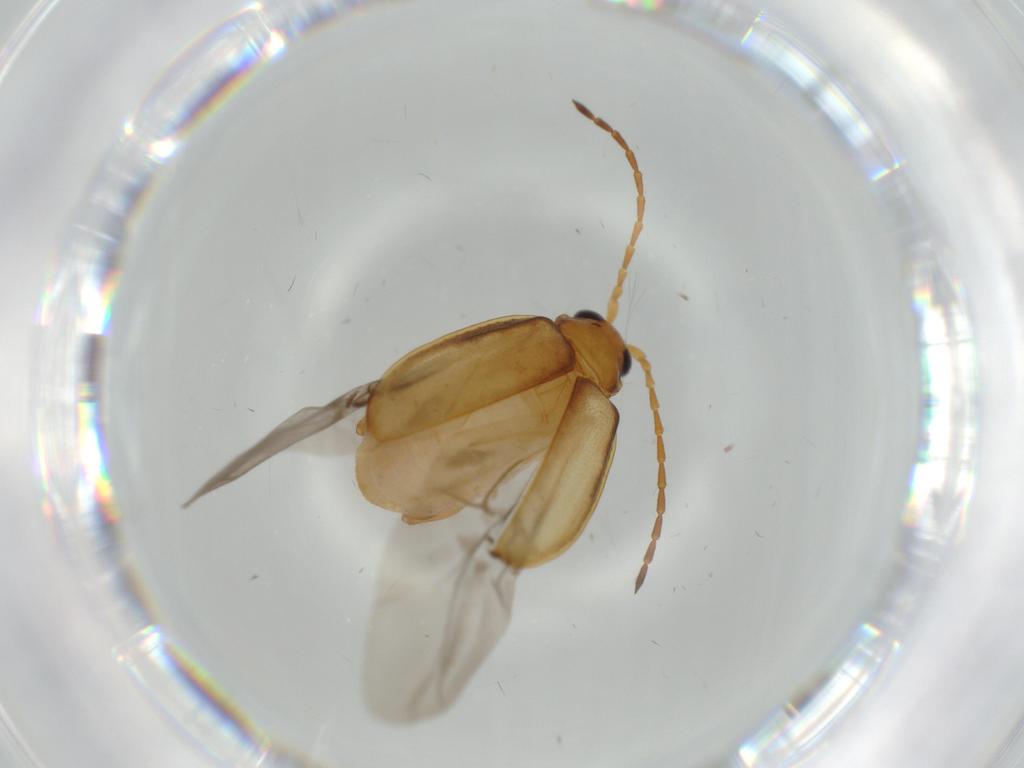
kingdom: Animalia
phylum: Arthropoda
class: Insecta
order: Coleoptera
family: Chrysomelidae
